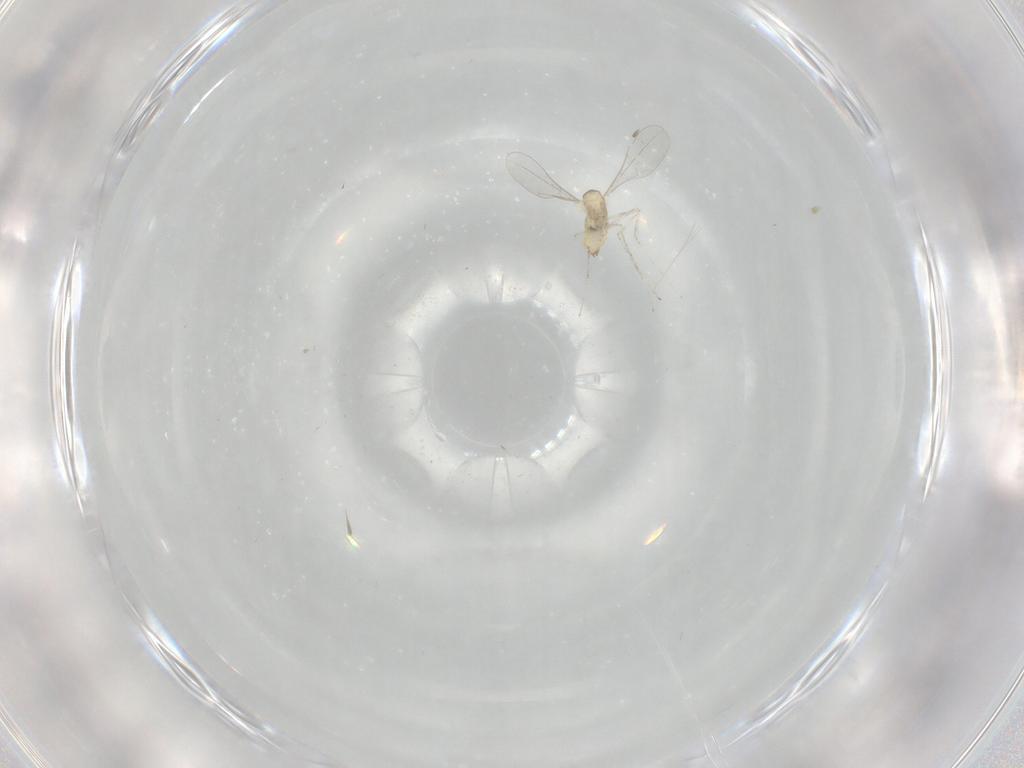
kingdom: Animalia
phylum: Arthropoda
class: Insecta
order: Diptera
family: Cecidomyiidae
